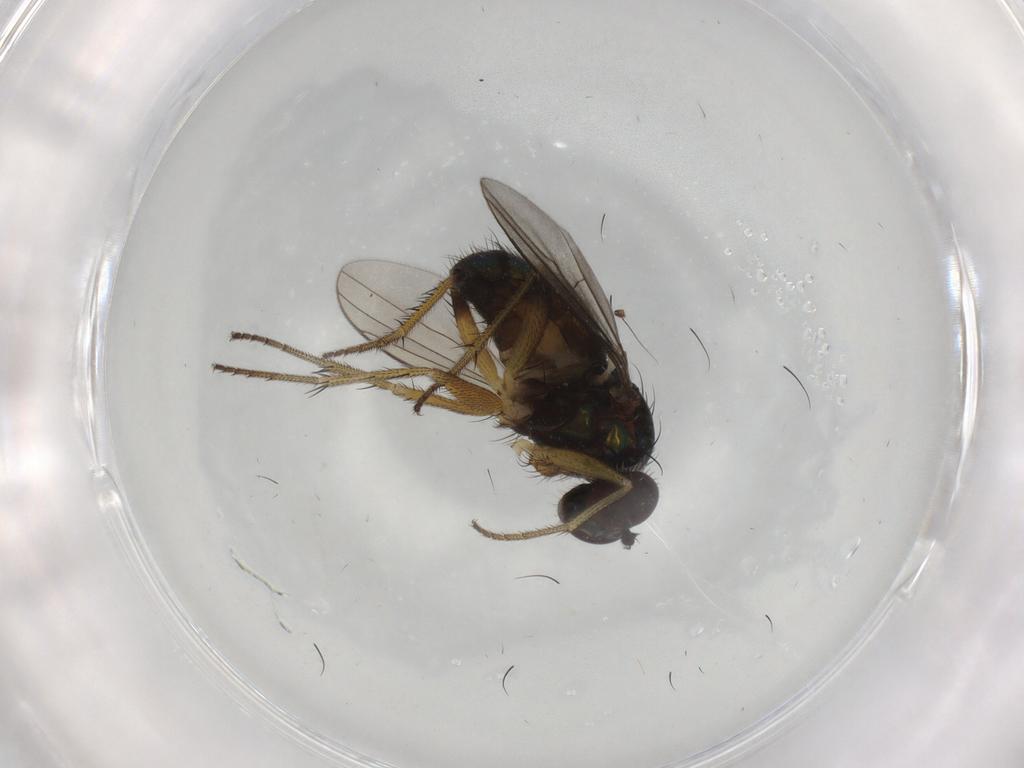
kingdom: Animalia
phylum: Arthropoda
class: Insecta
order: Diptera
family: Dolichopodidae
